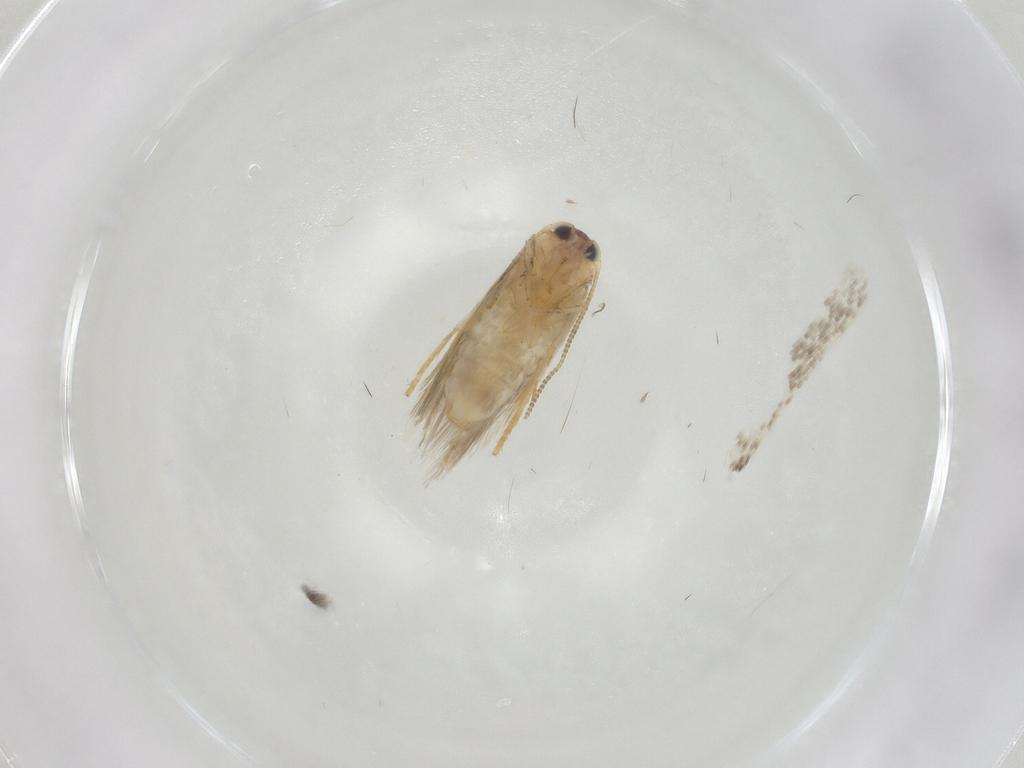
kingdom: Animalia
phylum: Arthropoda
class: Insecta
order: Lepidoptera
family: Nepticulidae
